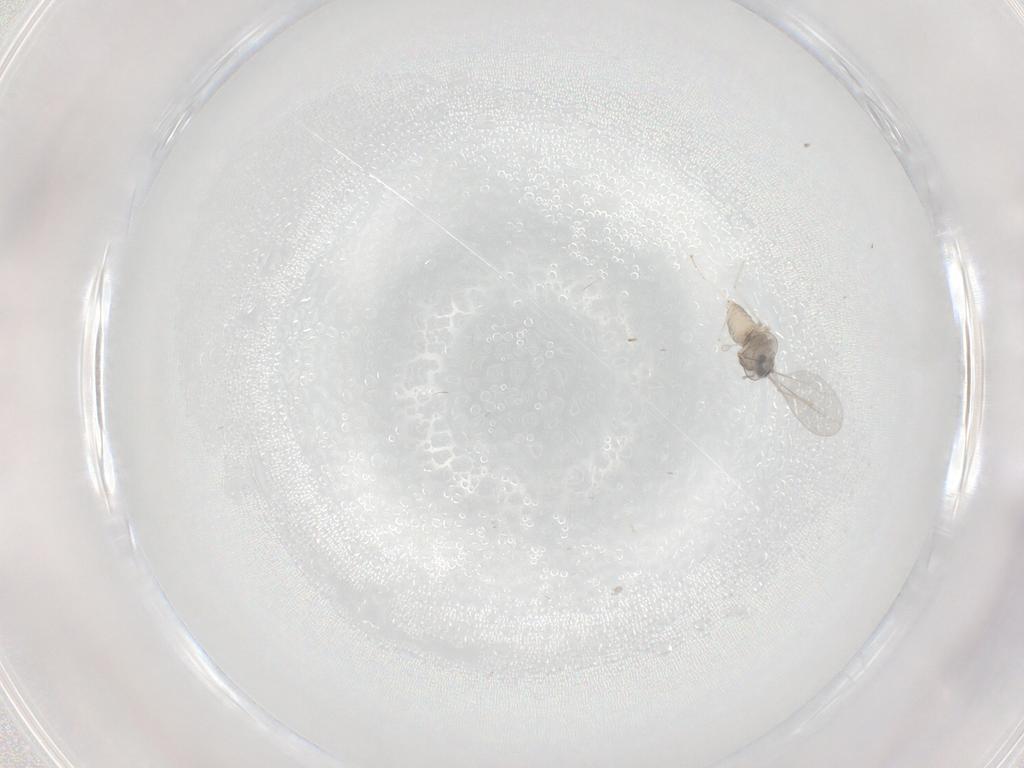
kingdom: Animalia
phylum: Arthropoda
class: Insecta
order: Diptera
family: Cecidomyiidae
